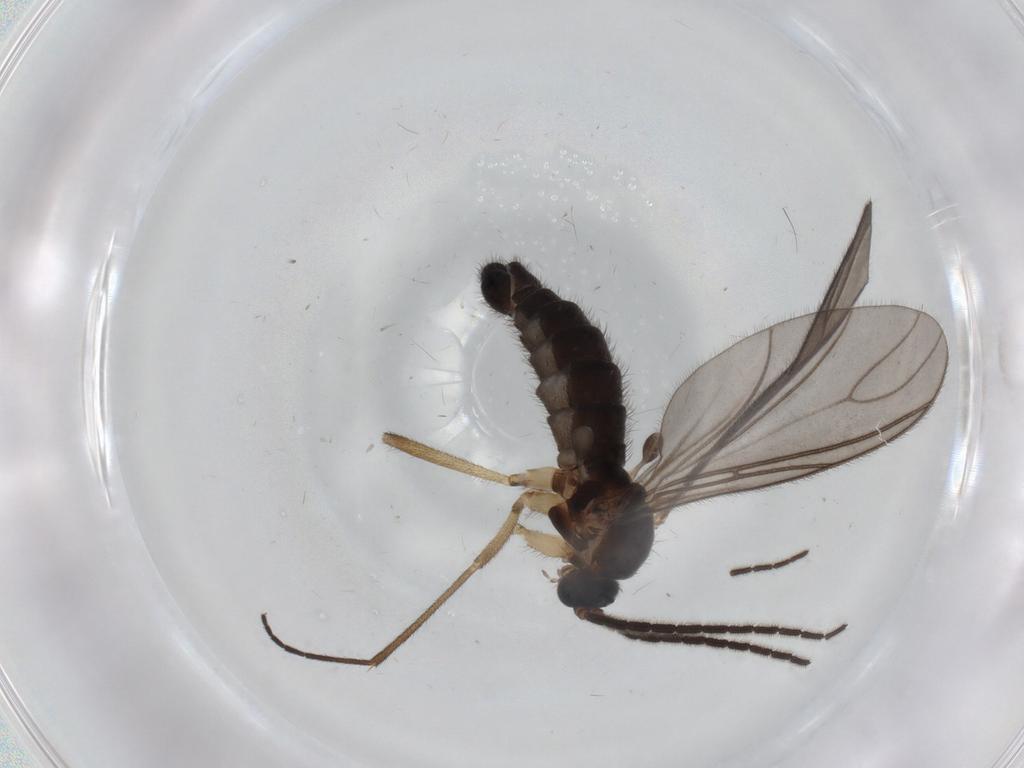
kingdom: Animalia
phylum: Arthropoda
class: Insecta
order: Diptera
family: Sciaridae
